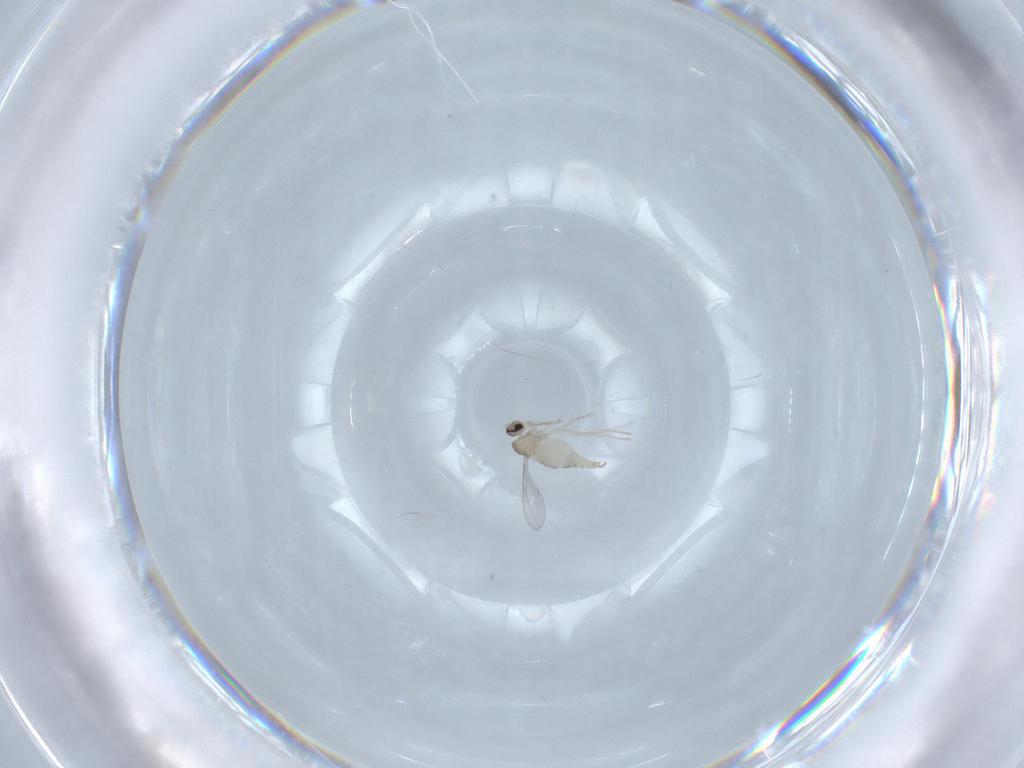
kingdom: Animalia
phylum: Arthropoda
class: Insecta
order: Diptera
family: Cecidomyiidae
